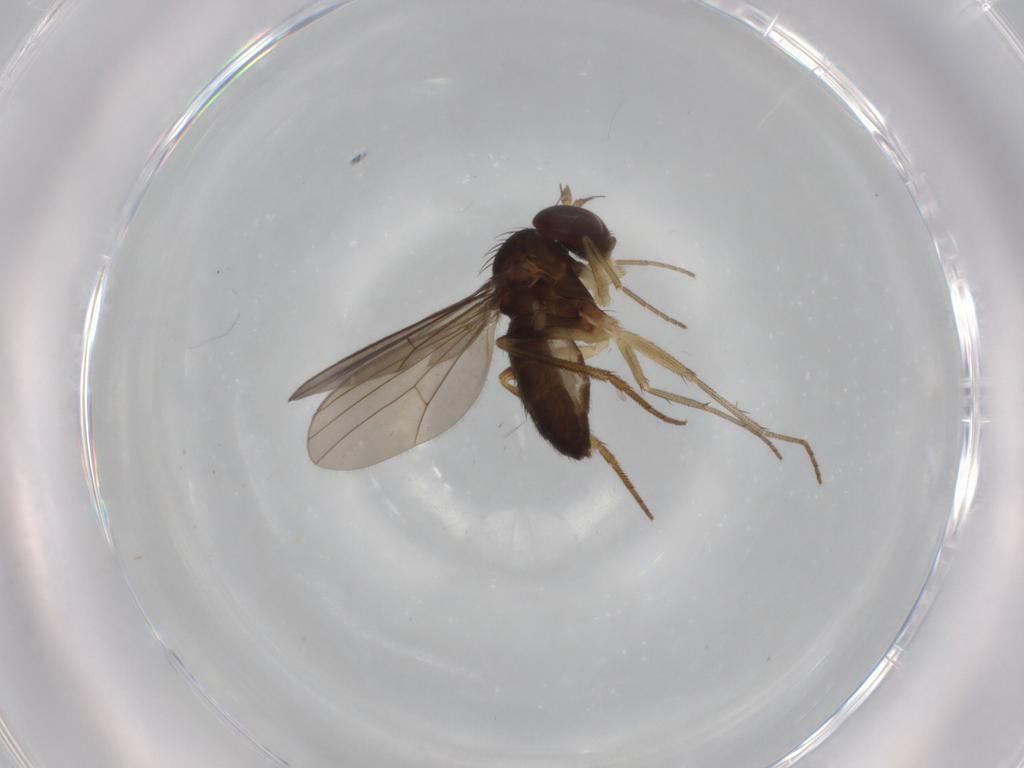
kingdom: Animalia
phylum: Arthropoda
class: Insecta
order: Diptera
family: Dolichopodidae
